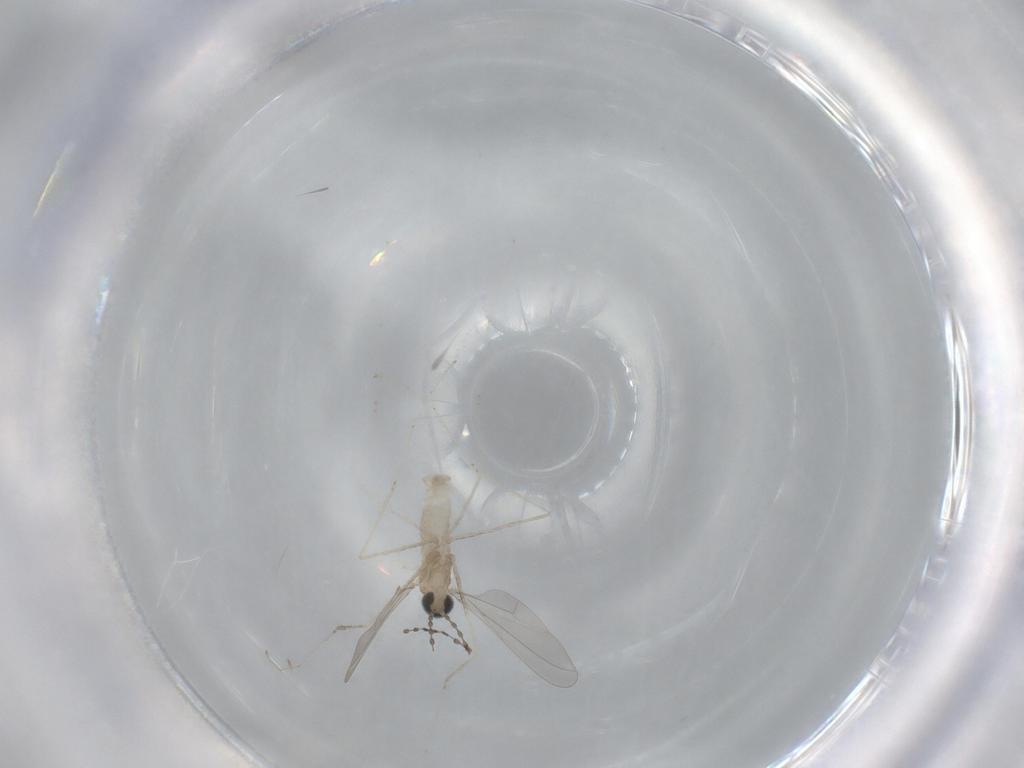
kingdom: Animalia
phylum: Arthropoda
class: Insecta
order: Diptera
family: Cecidomyiidae
